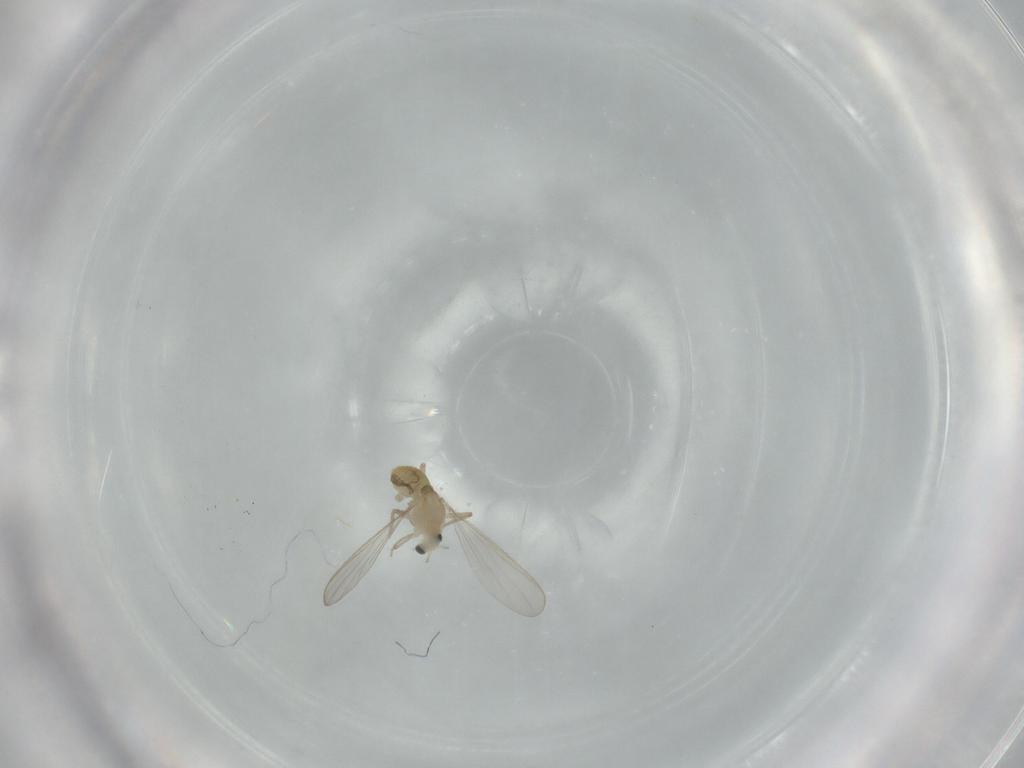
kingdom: Animalia
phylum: Arthropoda
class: Insecta
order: Diptera
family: Chironomidae
